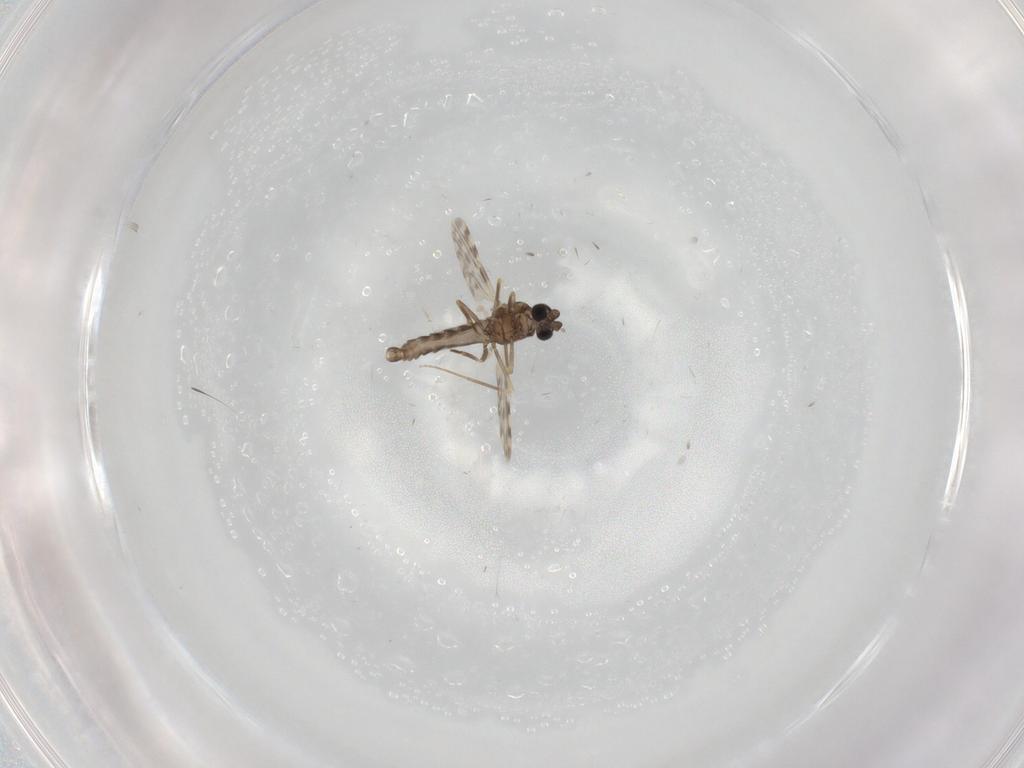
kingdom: Animalia
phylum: Arthropoda
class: Insecta
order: Diptera
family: Ceratopogonidae
